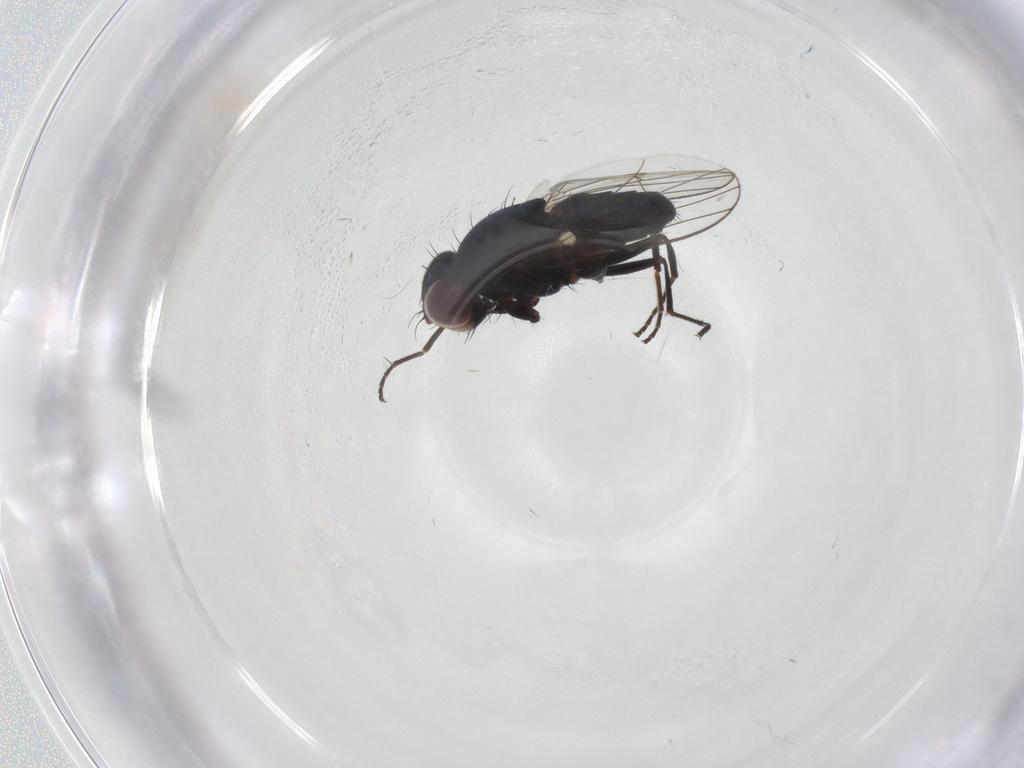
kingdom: Animalia
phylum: Arthropoda
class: Insecta
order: Diptera
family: Carnidae
